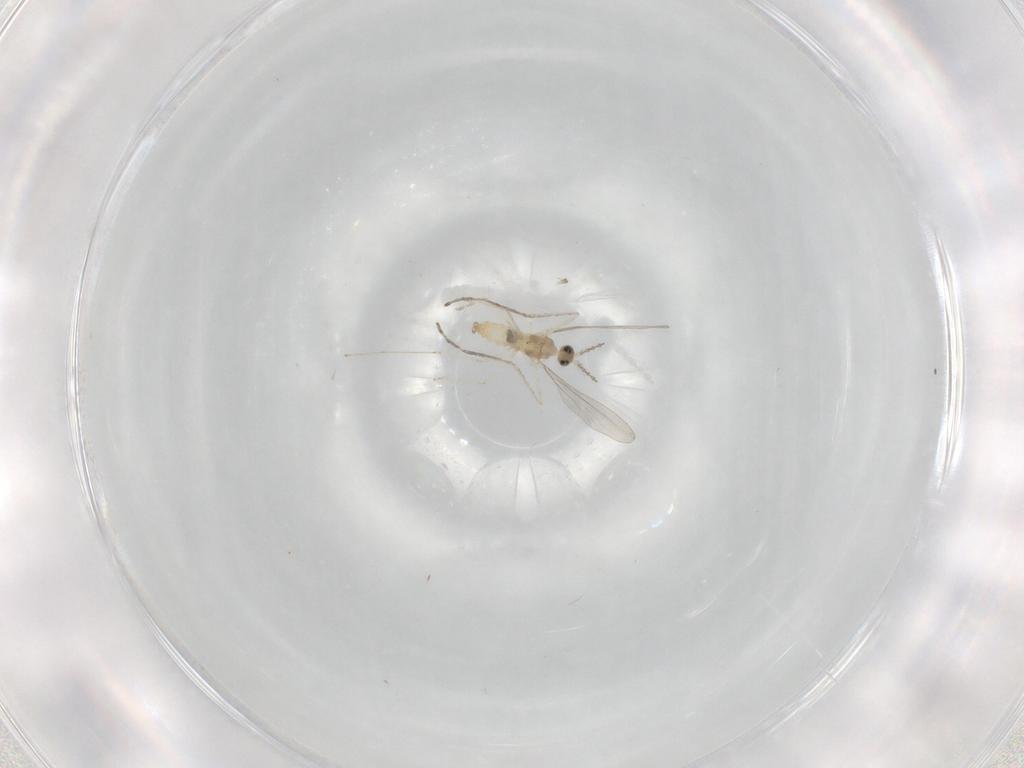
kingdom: Animalia
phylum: Arthropoda
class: Insecta
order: Diptera
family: Cecidomyiidae
